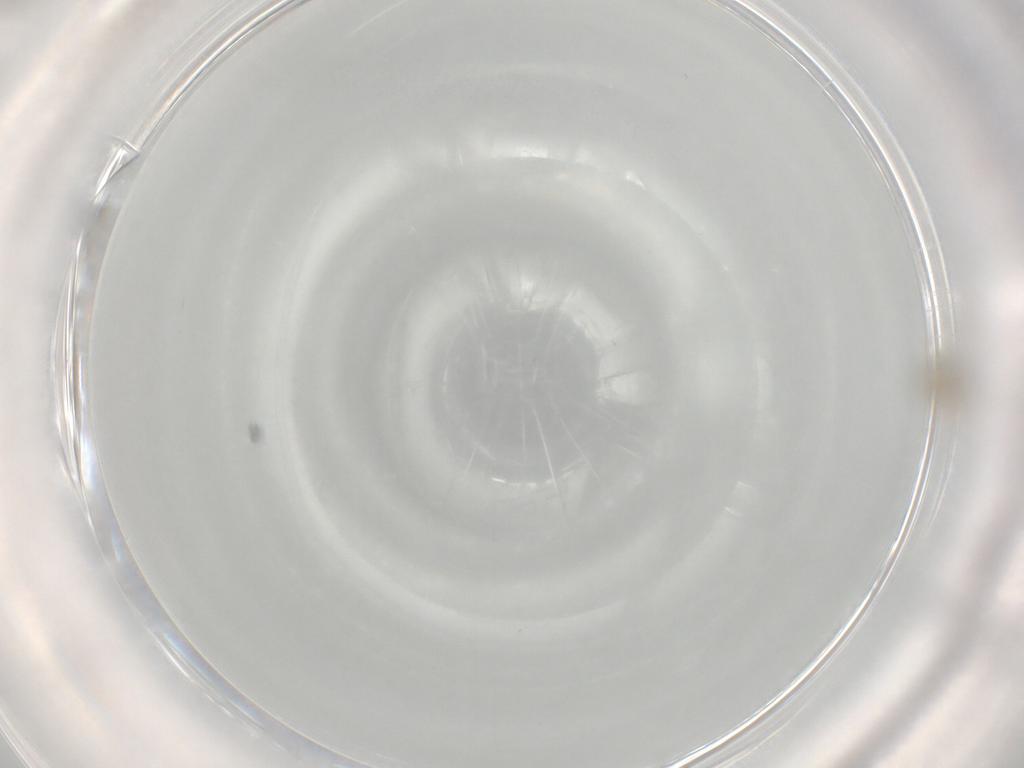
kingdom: Animalia
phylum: Arthropoda
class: Insecta
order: Diptera
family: Cecidomyiidae
